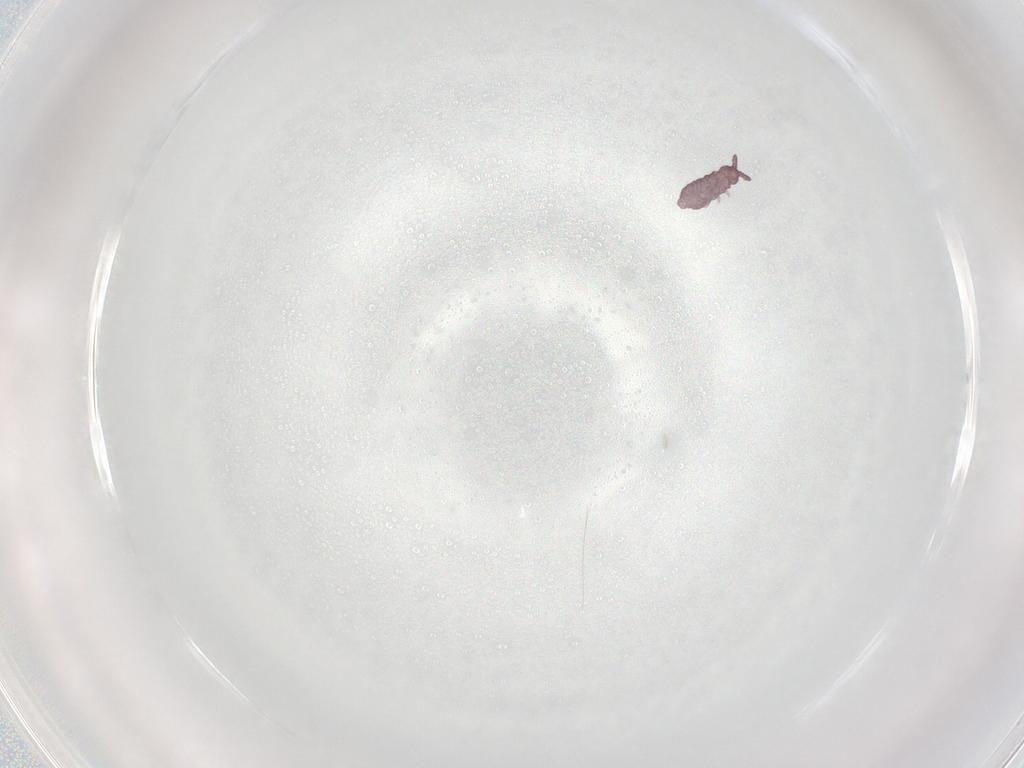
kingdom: Animalia
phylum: Arthropoda
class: Collembola
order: Poduromorpha
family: Hypogastruridae
